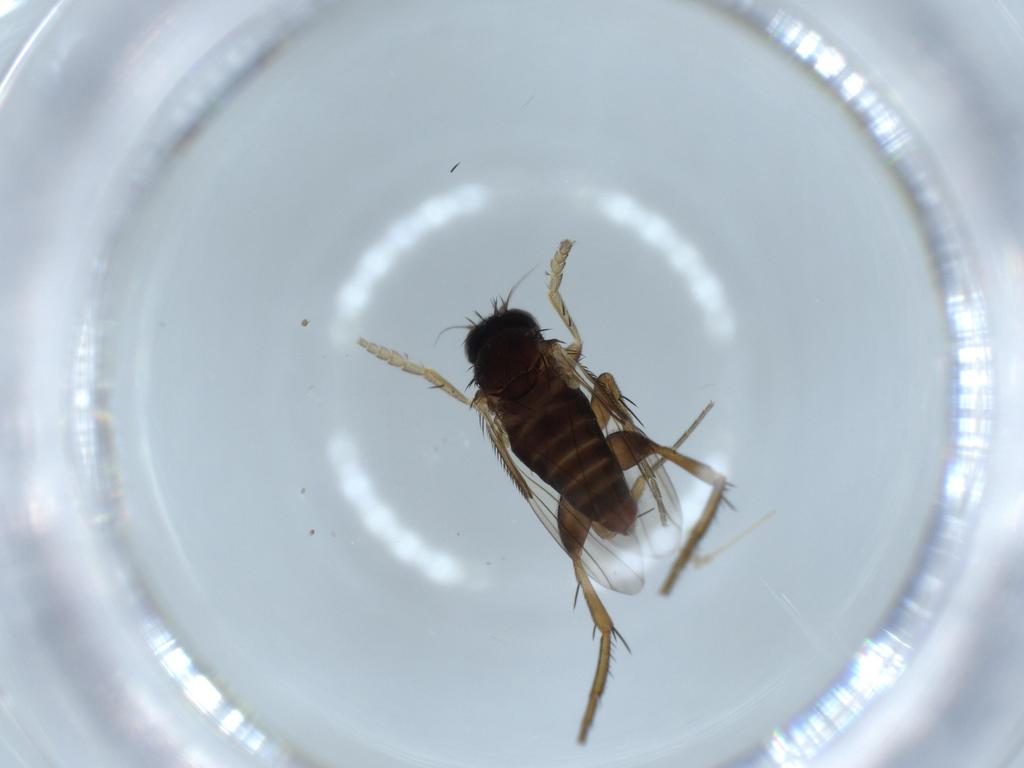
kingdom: Animalia
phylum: Arthropoda
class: Insecta
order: Diptera
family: Cecidomyiidae
